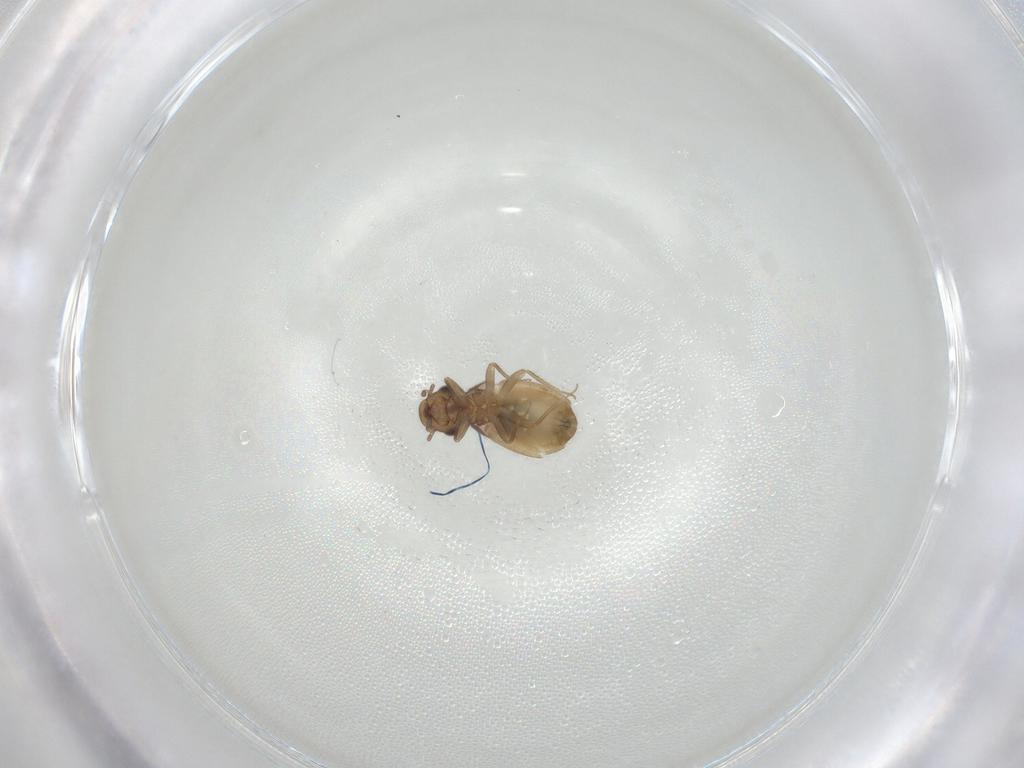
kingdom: Animalia
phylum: Arthropoda
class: Insecta
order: Psocodea
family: Trogiidae
